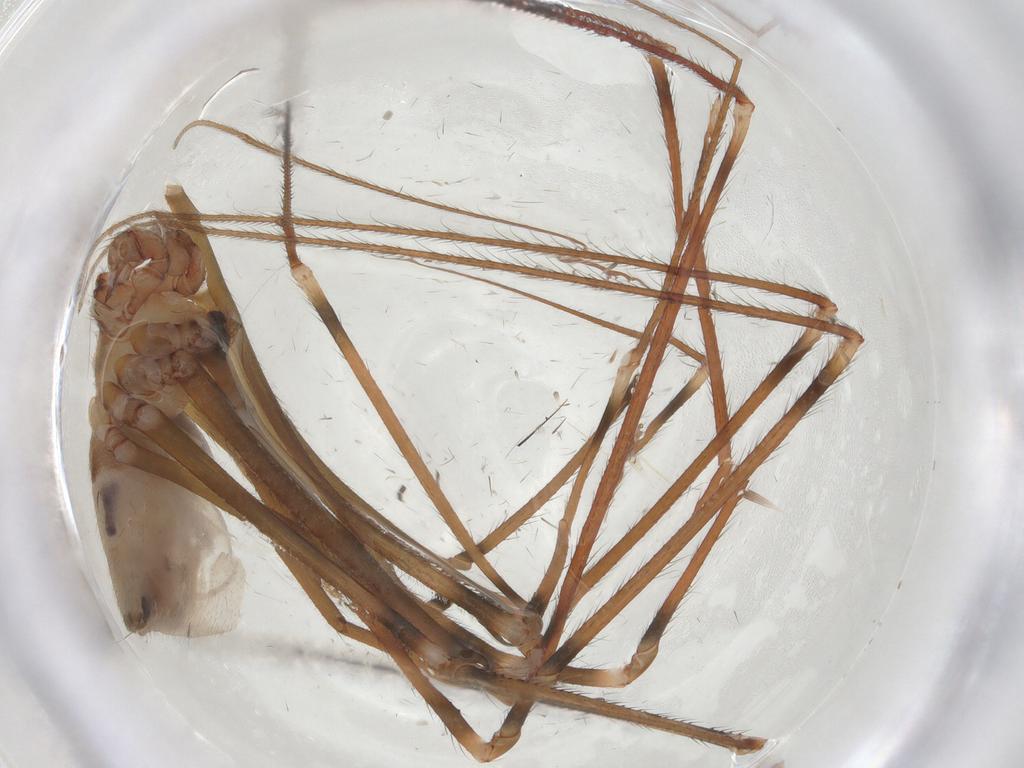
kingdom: Animalia
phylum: Arthropoda
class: Arachnida
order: Araneae
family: Pholcidae
